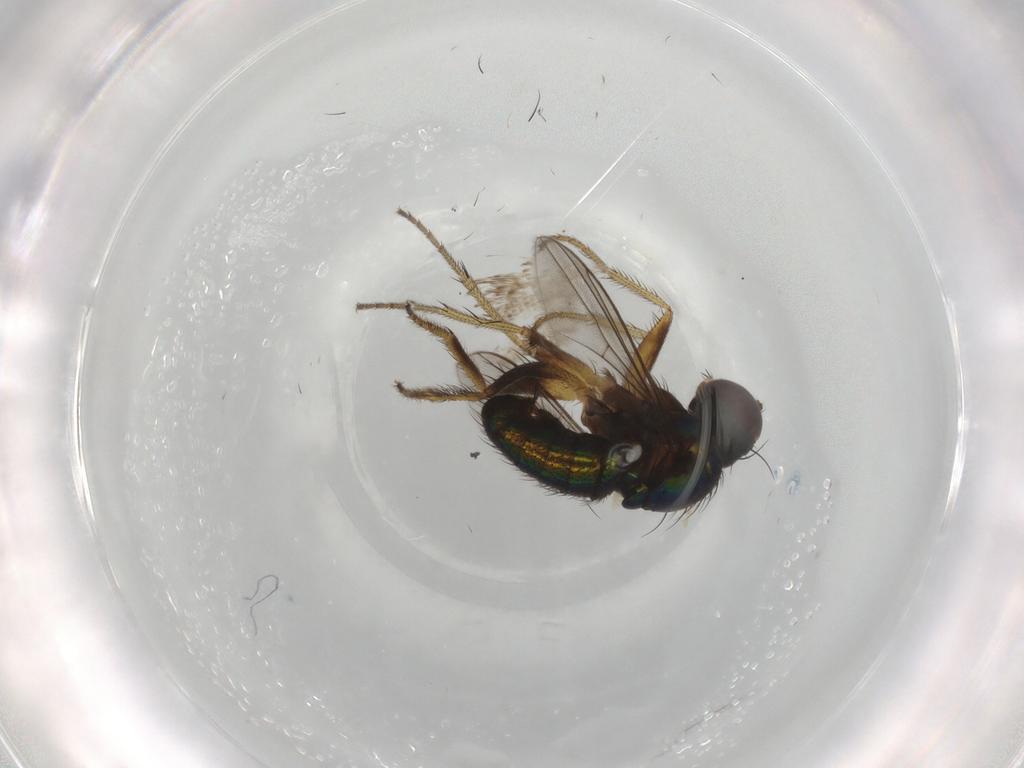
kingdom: Animalia
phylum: Arthropoda
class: Insecta
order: Diptera
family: Dolichopodidae
